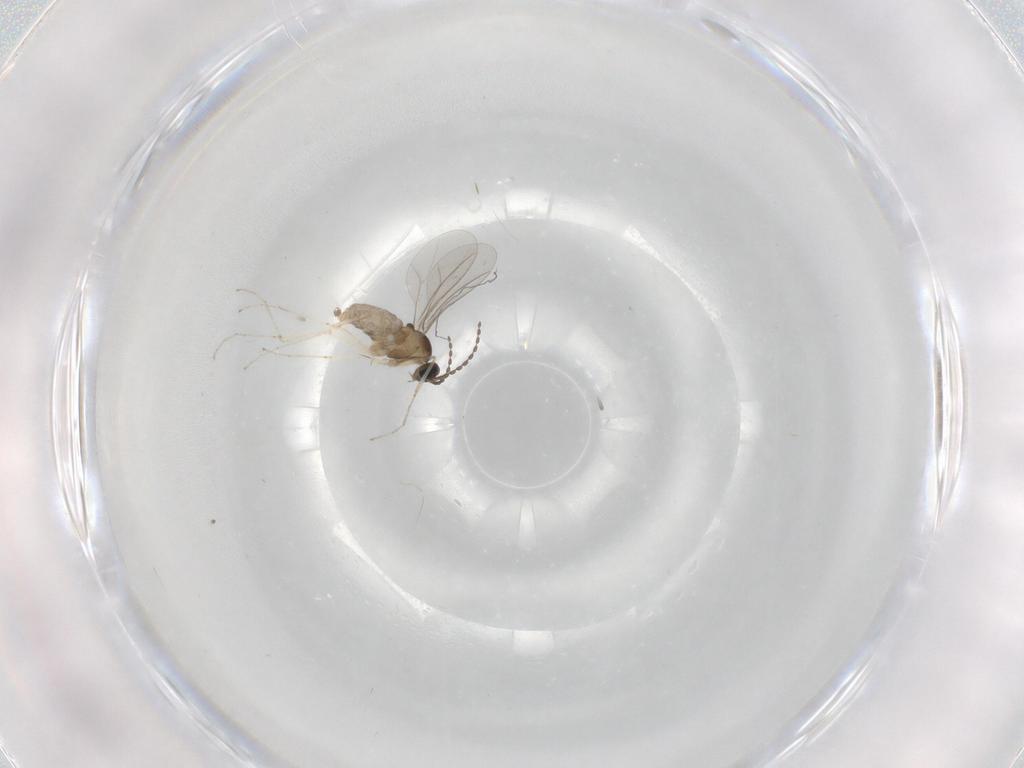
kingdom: Animalia
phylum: Arthropoda
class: Insecta
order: Diptera
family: Cecidomyiidae
